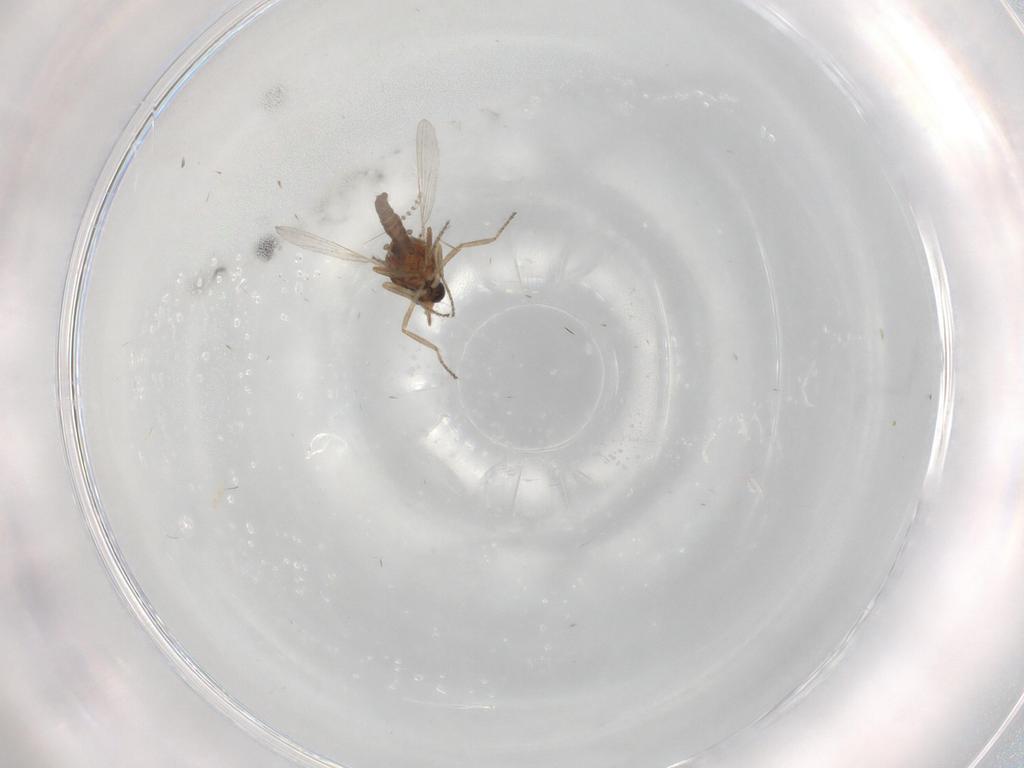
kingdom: Animalia
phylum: Arthropoda
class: Insecta
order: Diptera
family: Psychodidae
